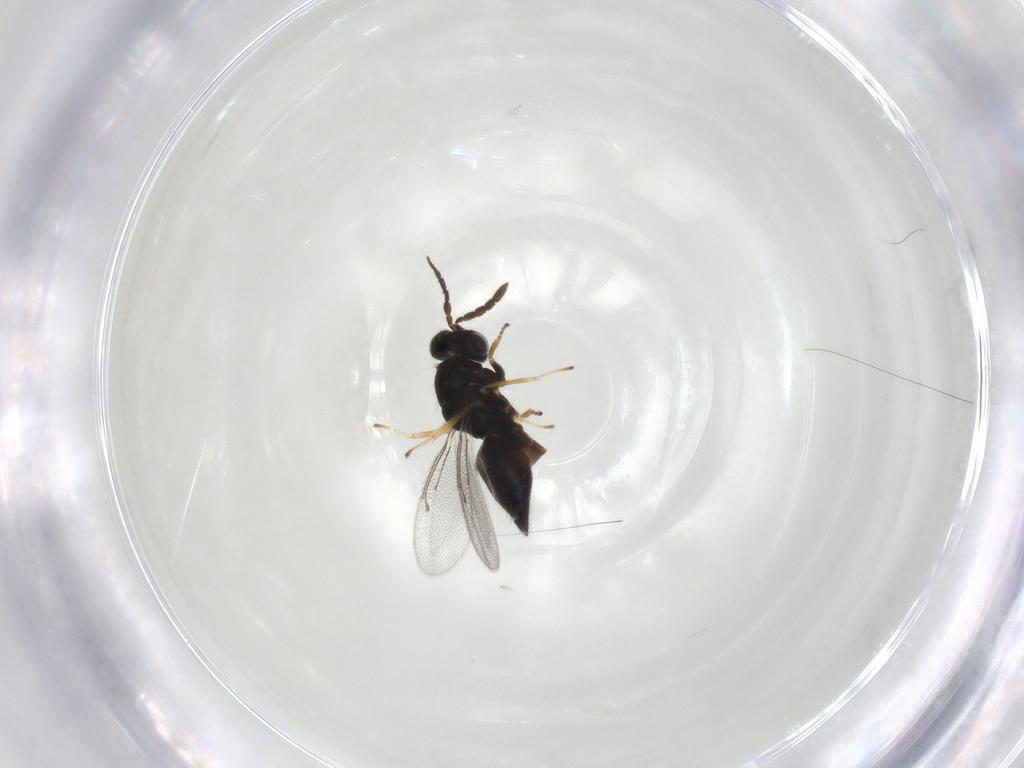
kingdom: Animalia
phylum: Arthropoda
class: Insecta
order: Hymenoptera
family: Eulophidae
